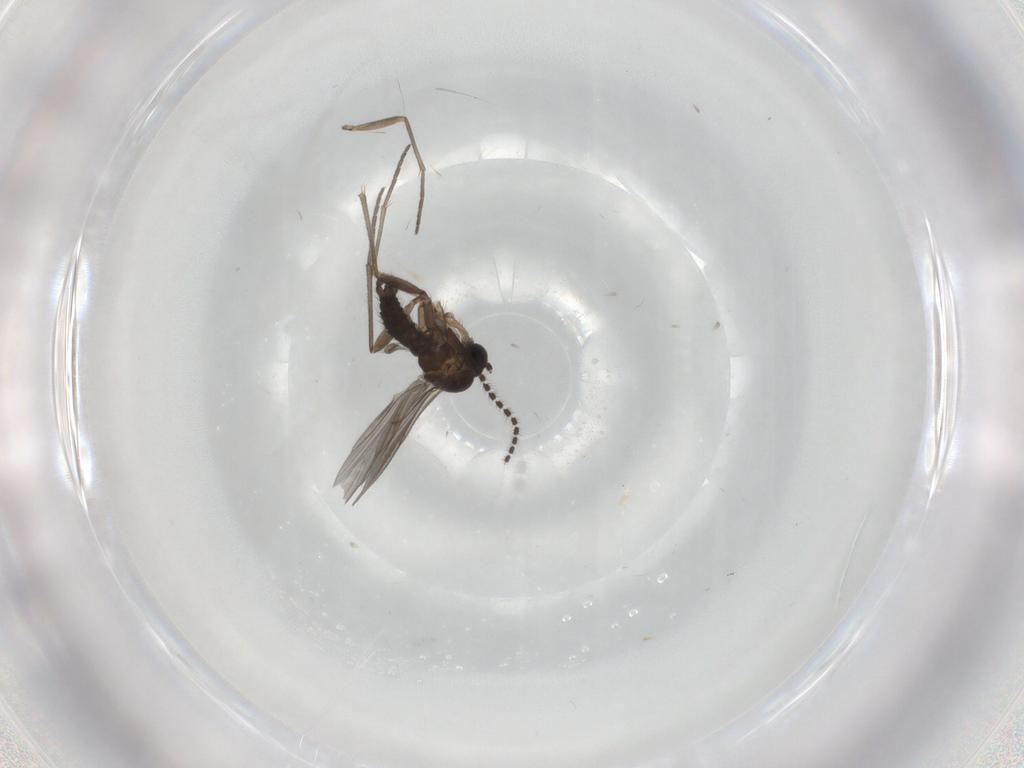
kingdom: Animalia
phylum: Arthropoda
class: Insecta
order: Diptera
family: Sciaridae
